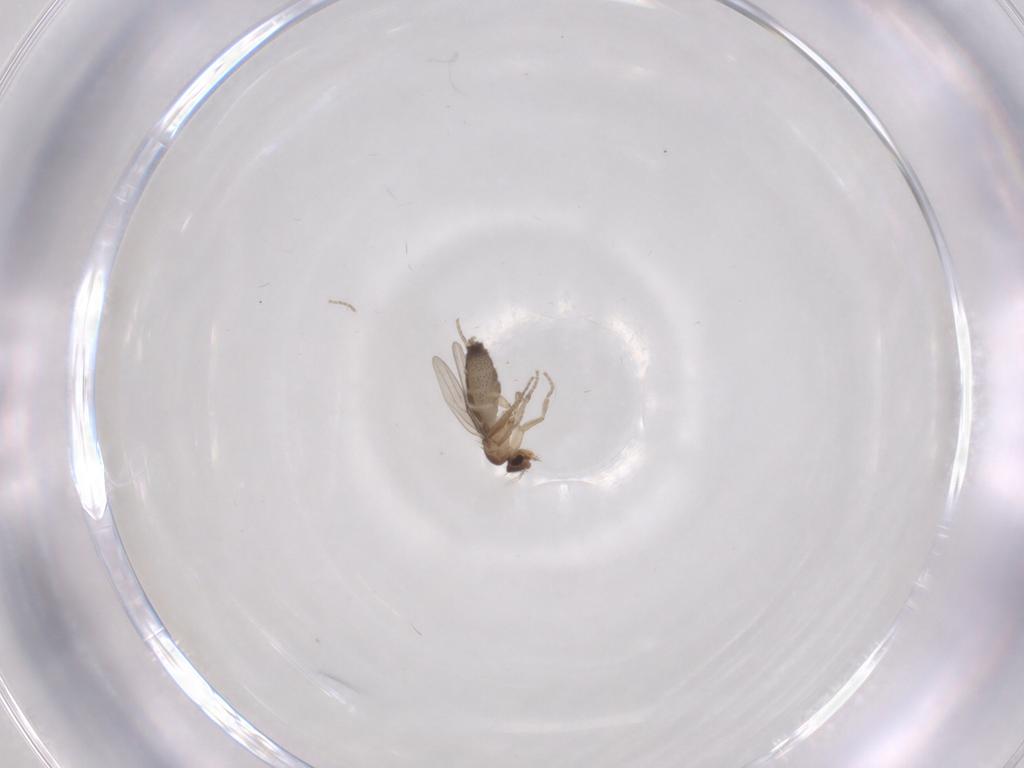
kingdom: Animalia
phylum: Arthropoda
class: Insecta
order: Diptera
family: Phoridae
